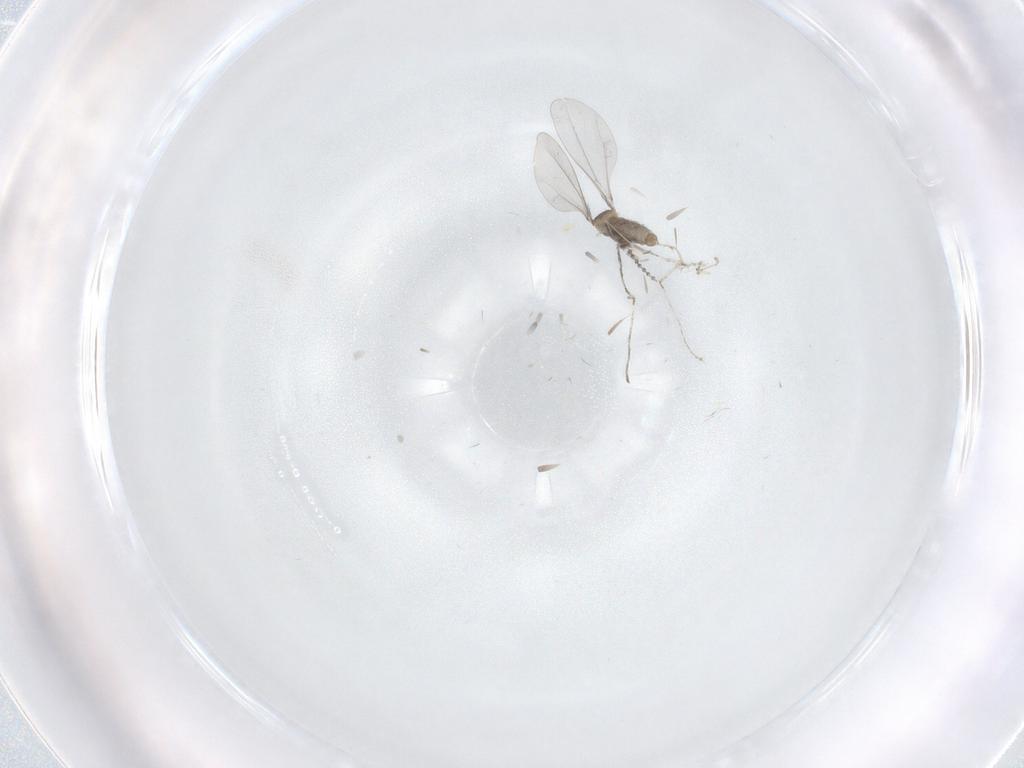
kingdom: Animalia
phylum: Arthropoda
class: Insecta
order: Diptera
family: Cecidomyiidae
